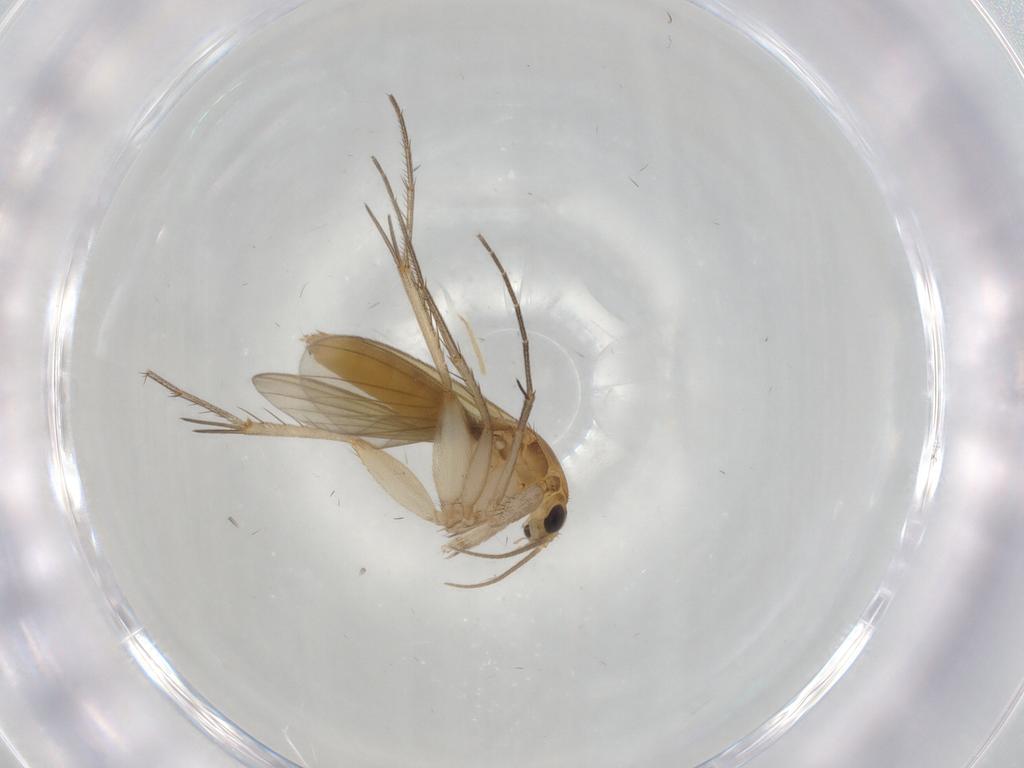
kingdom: Animalia
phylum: Arthropoda
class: Insecta
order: Diptera
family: Mycetophilidae
